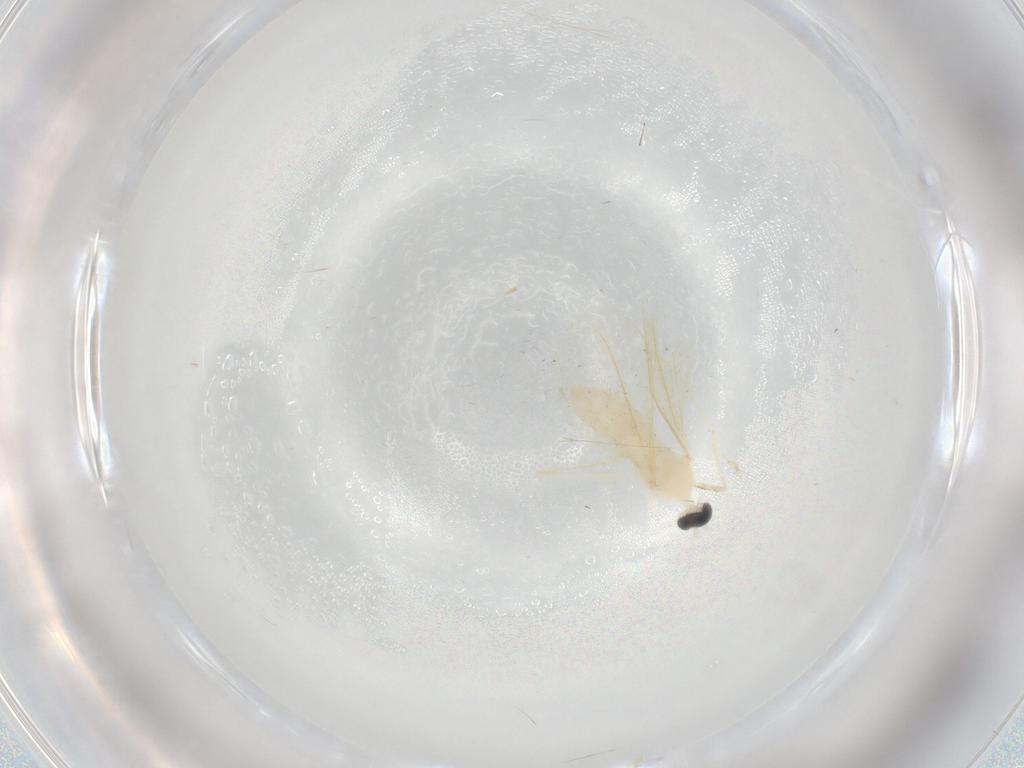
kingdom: Animalia
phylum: Arthropoda
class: Insecta
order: Diptera
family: Cecidomyiidae
